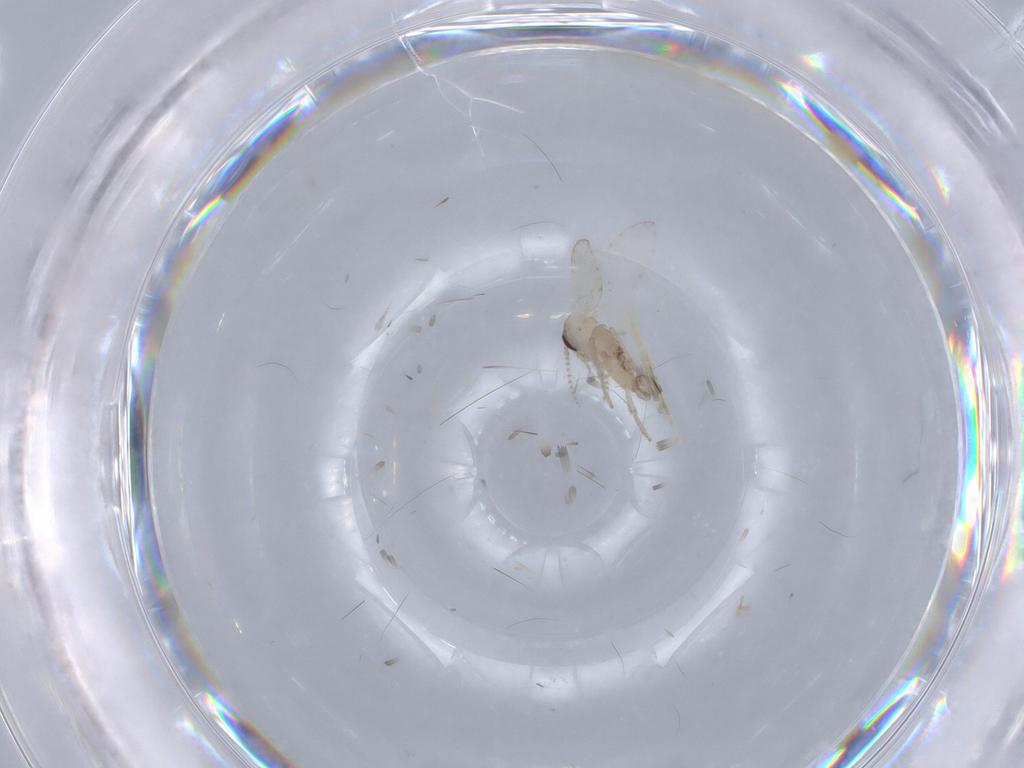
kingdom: Animalia
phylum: Arthropoda
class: Insecta
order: Diptera
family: Psychodidae
